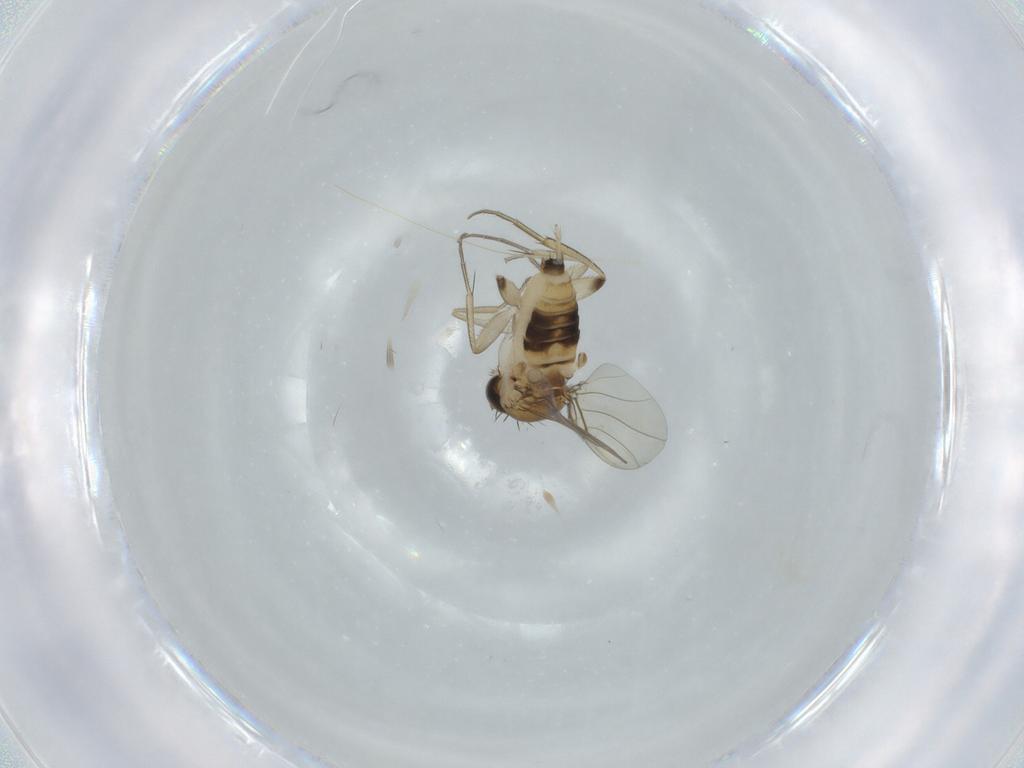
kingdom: Animalia
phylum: Arthropoda
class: Insecta
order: Diptera
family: Phoridae
